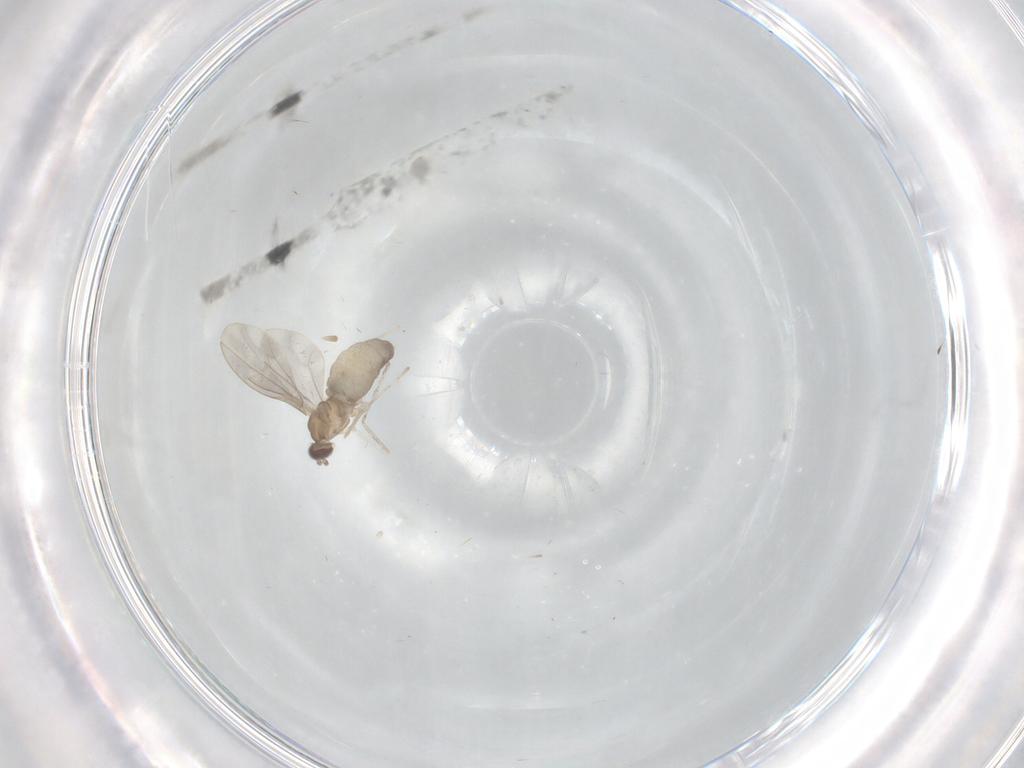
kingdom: Animalia
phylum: Arthropoda
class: Insecta
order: Diptera
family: Cecidomyiidae
